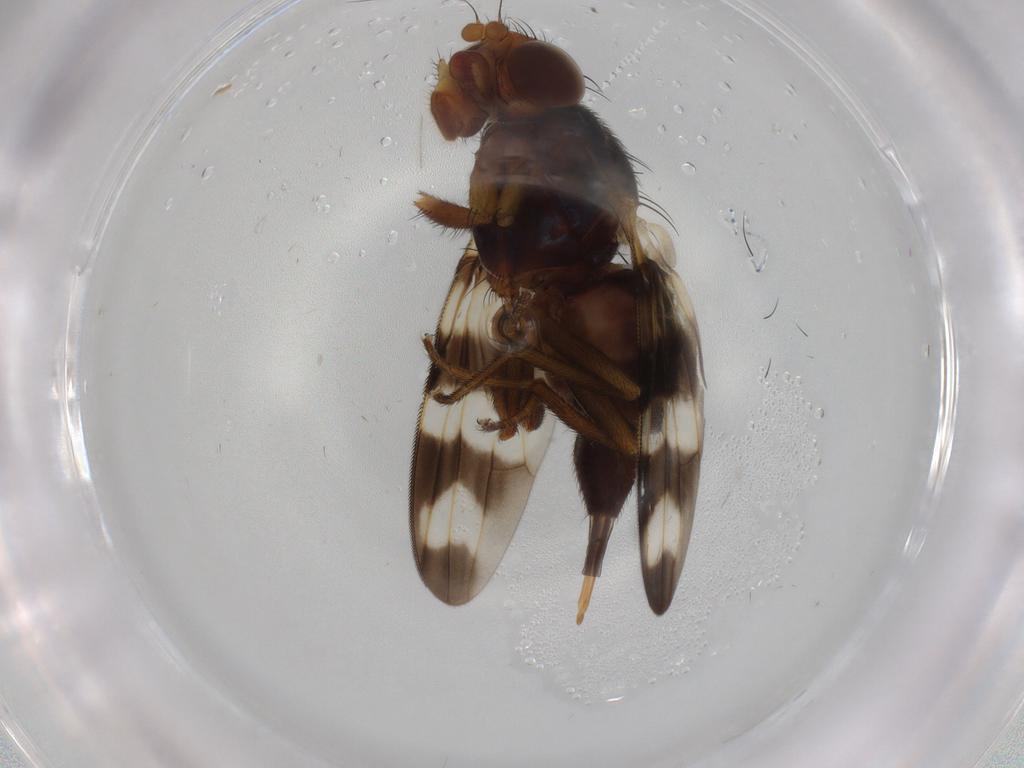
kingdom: Animalia
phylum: Arthropoda
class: Insecta
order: Diptera
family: Ulidiidae
